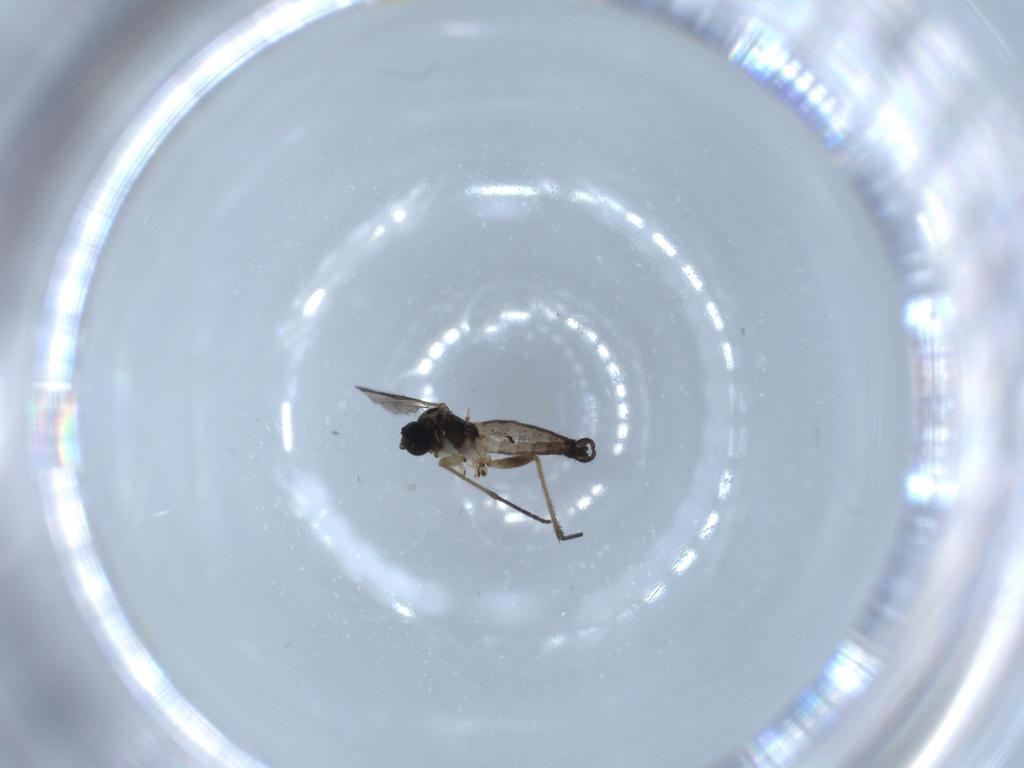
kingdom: Animalia
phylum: Arthropoda
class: Insecta
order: Diptera
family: Sciaridae
